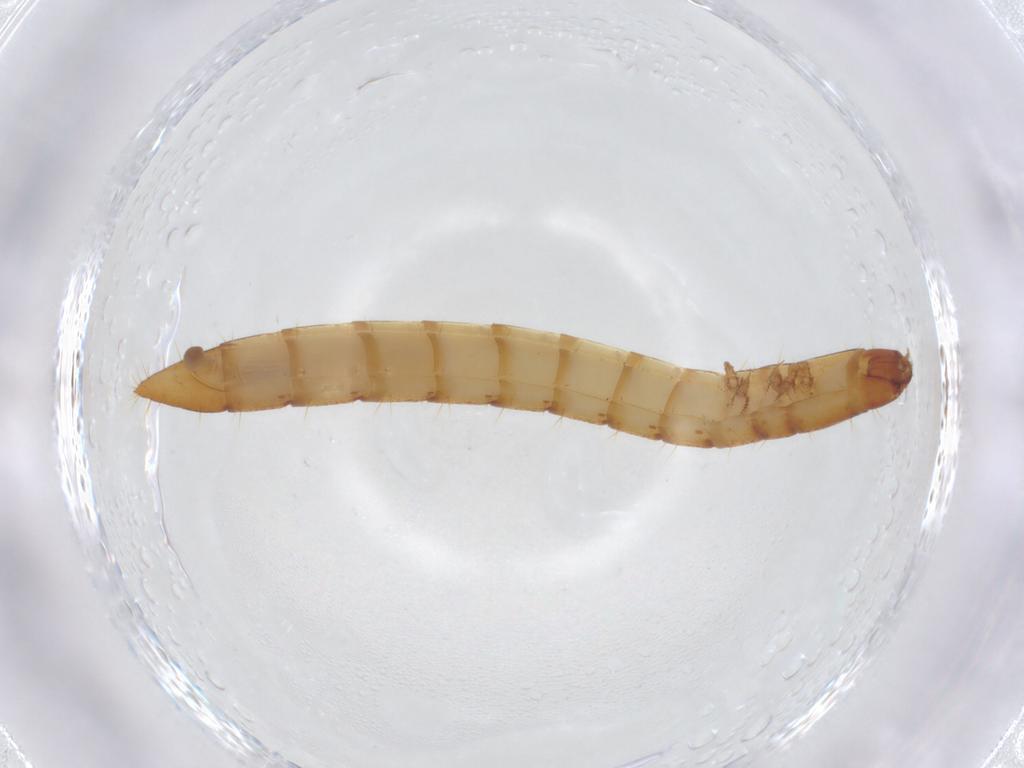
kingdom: Animalia
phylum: Arthropoda
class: Insecta
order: Coleoptera
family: Elateridae
